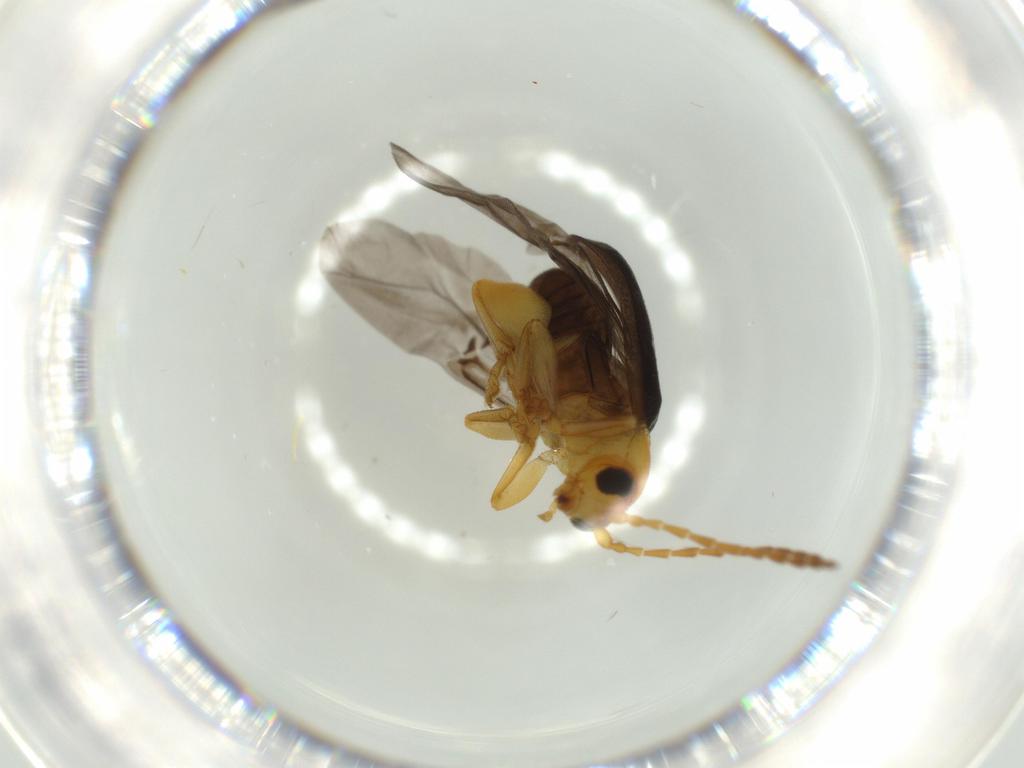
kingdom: Animalia
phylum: Arthropoda
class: Insecta
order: Coleoptera
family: Chrysomelidae
